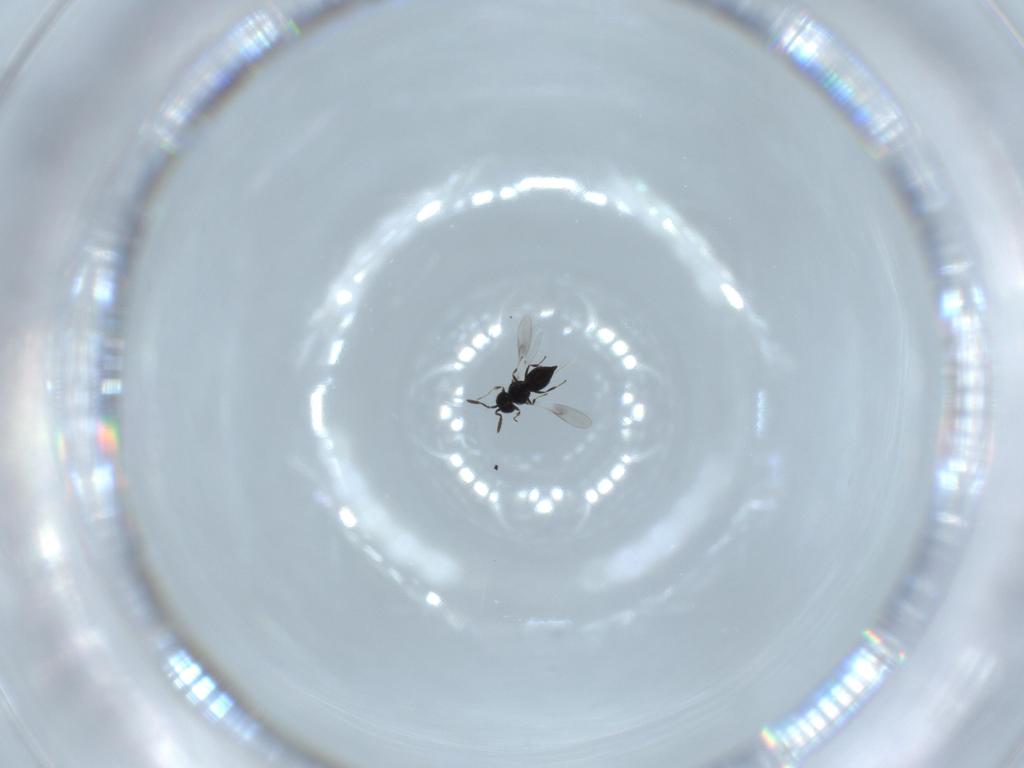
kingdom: Animalia
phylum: Arthropoda
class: Insecta
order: Hymenoptera
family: Scelionidae
